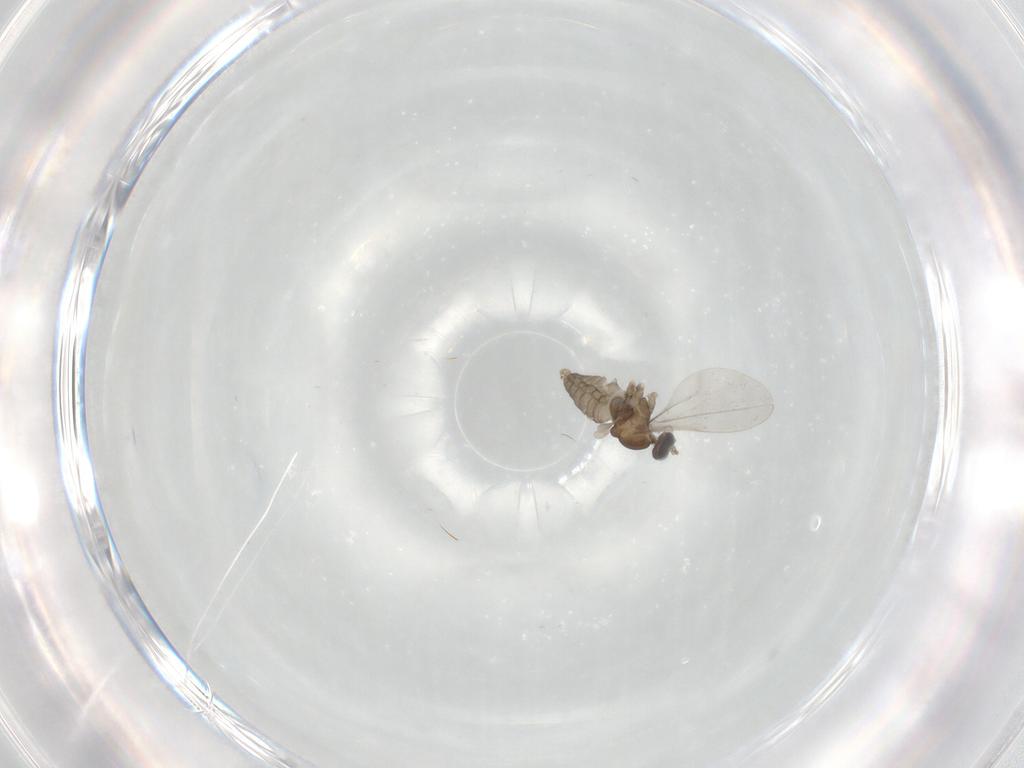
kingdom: Animalia
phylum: Arthropoda
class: Insecta
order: Diptera
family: Cecidomyiidae
